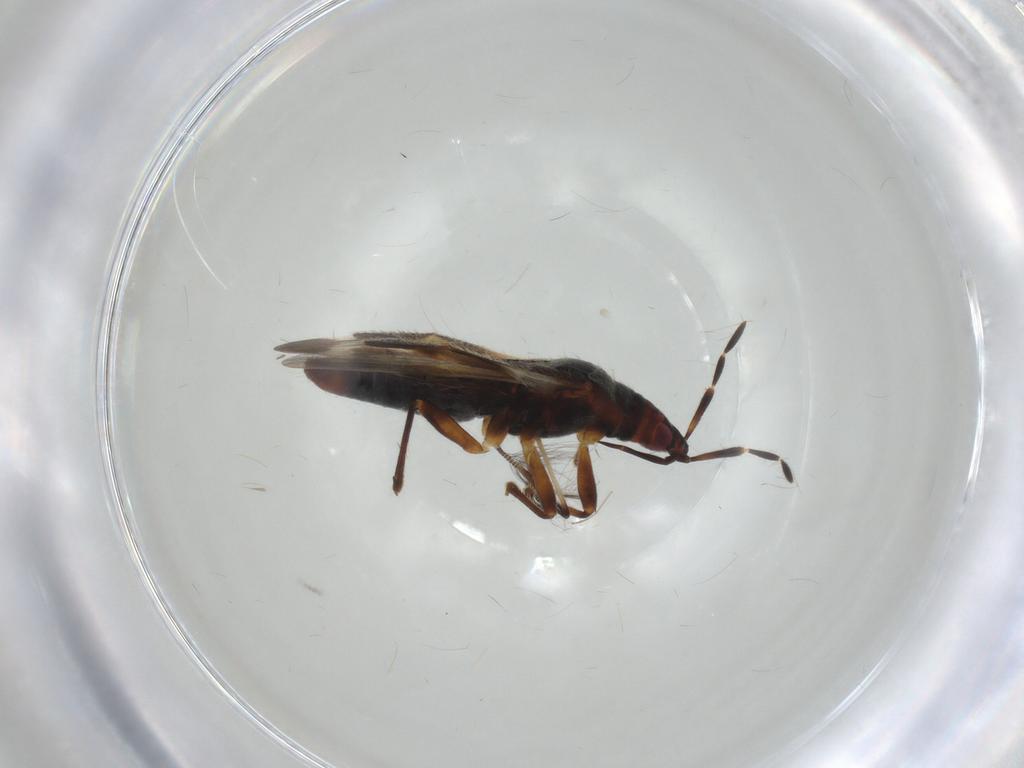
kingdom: Animalia
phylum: Arthropoda
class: Insecta
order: Hemiptera
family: Anthocoridae
